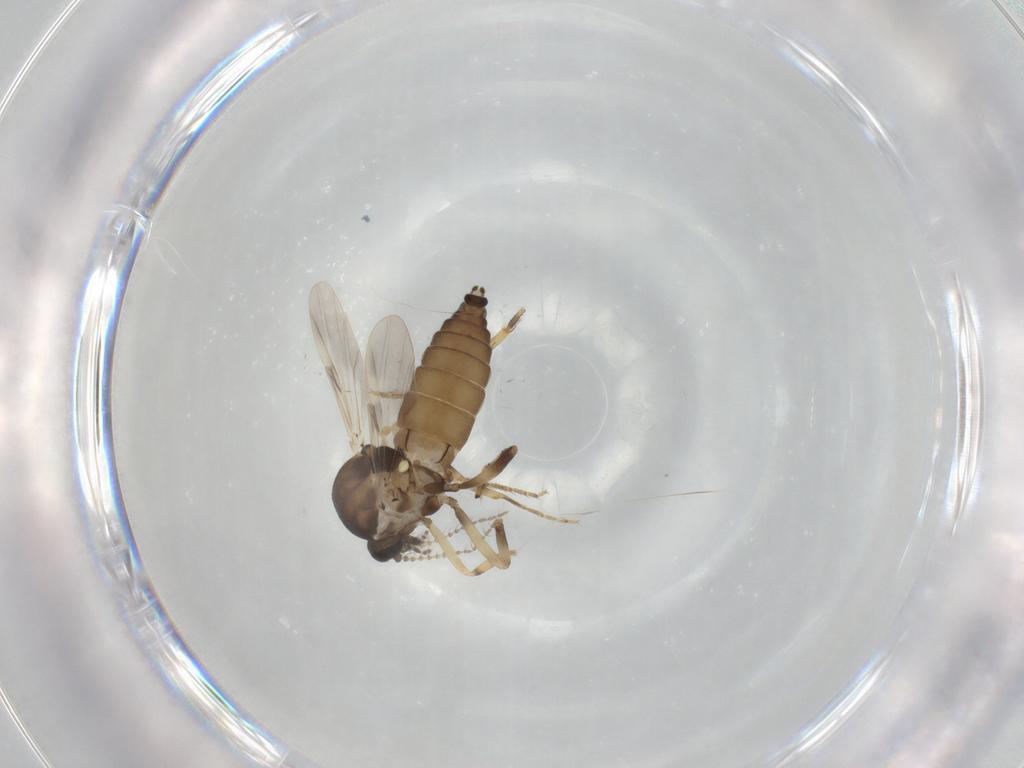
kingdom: Animalia
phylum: Arthropoda
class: Insecta
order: Diptera
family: Ceratopogonidae
